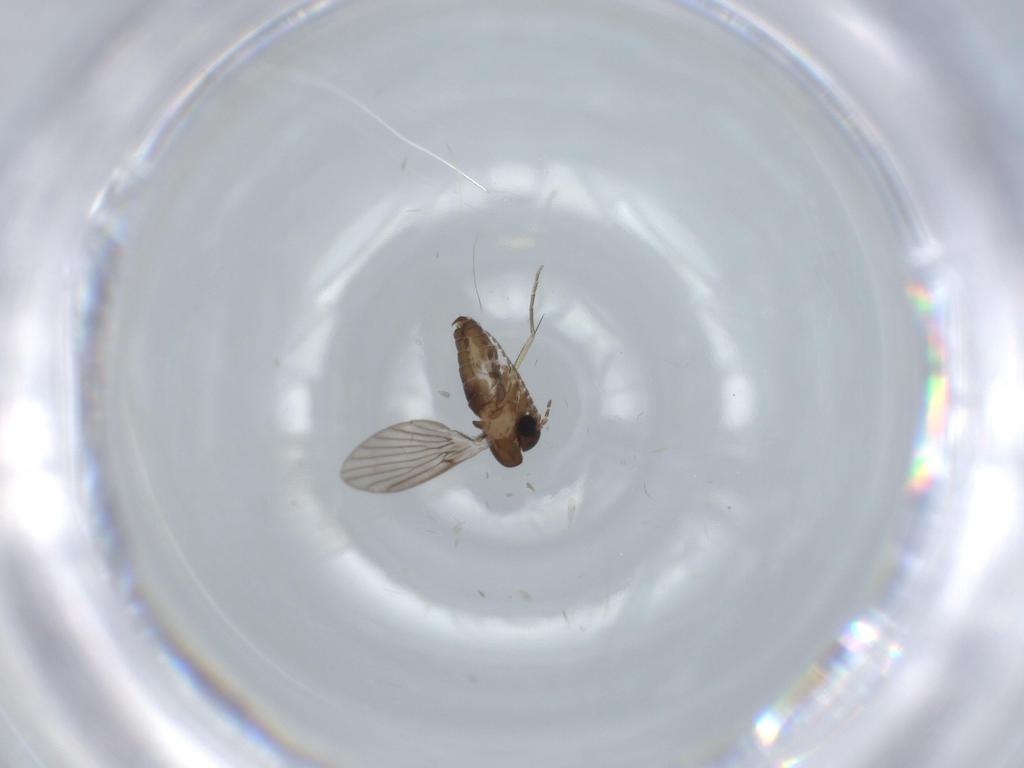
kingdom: Animalia
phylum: Arthropoda
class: Insecta
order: Diptera
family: Psychodidae
